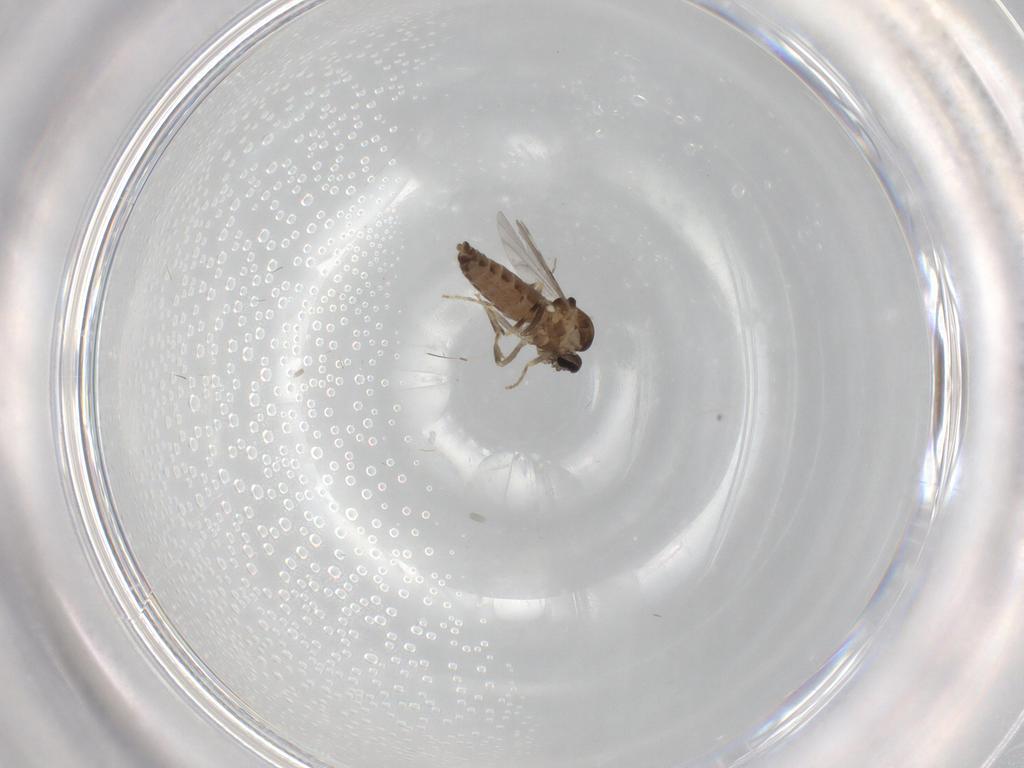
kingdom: Animalia
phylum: Arthropoda
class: Insecta
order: Diptera
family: Ceratopogonidae
